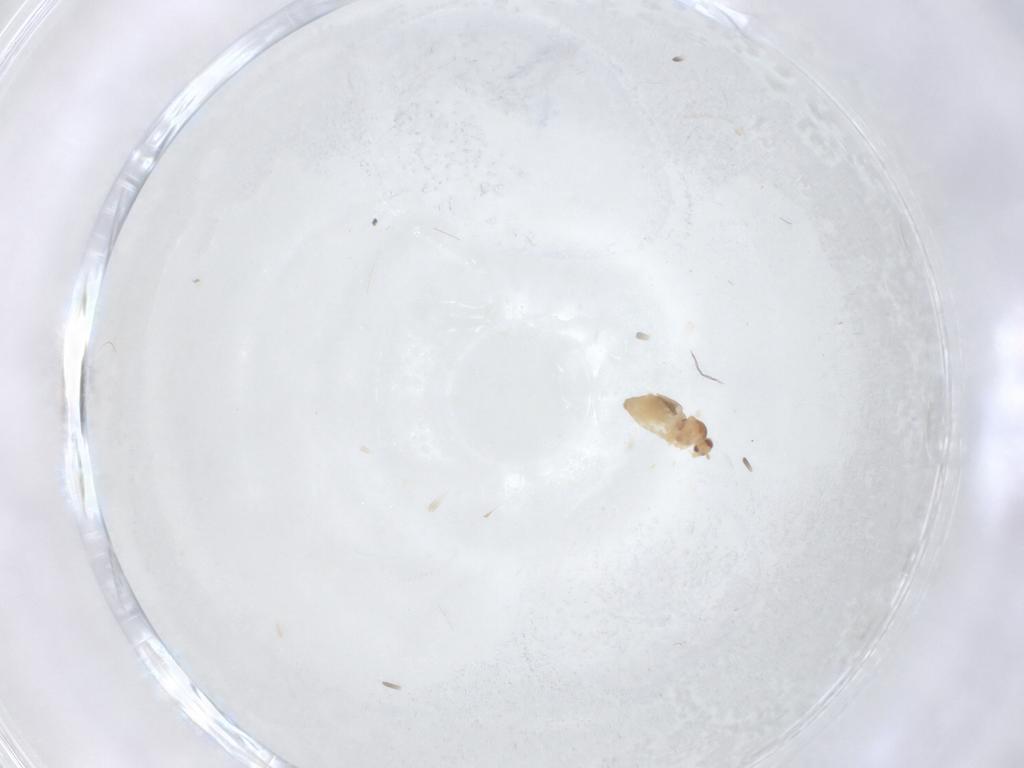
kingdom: Animalia
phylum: Arthropoda
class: Insecta
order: Diptera
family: Cecidomyiidae
